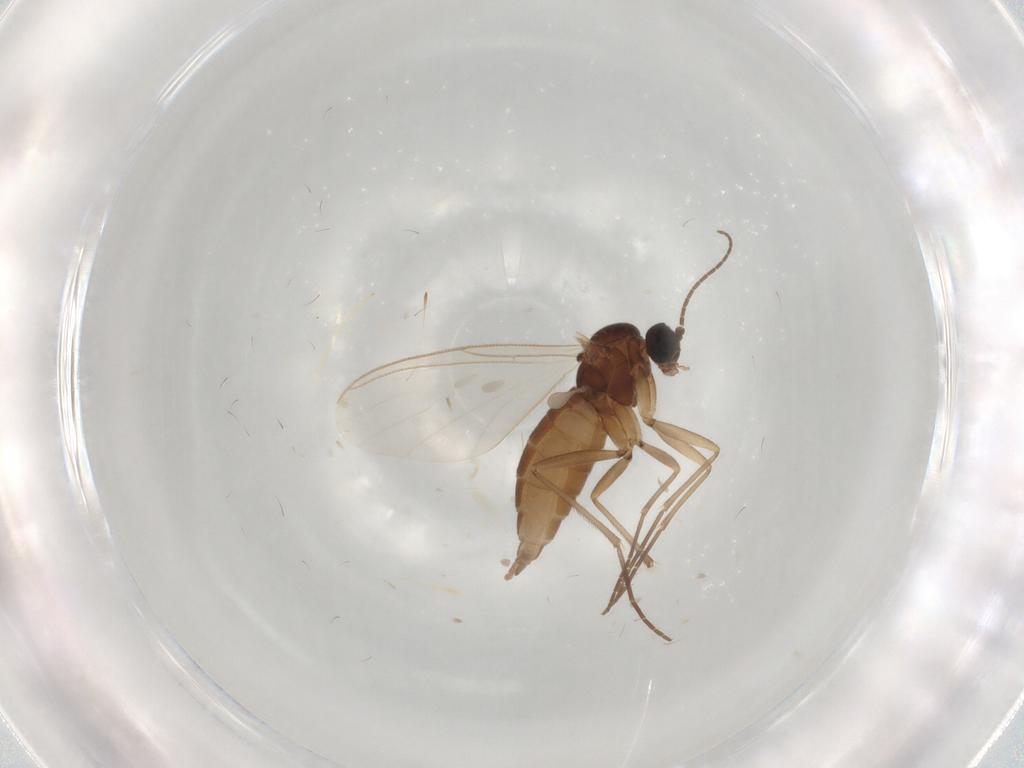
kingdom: Animalia
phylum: Arthropoda
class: Insecta
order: Diptera
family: Sciaridae
